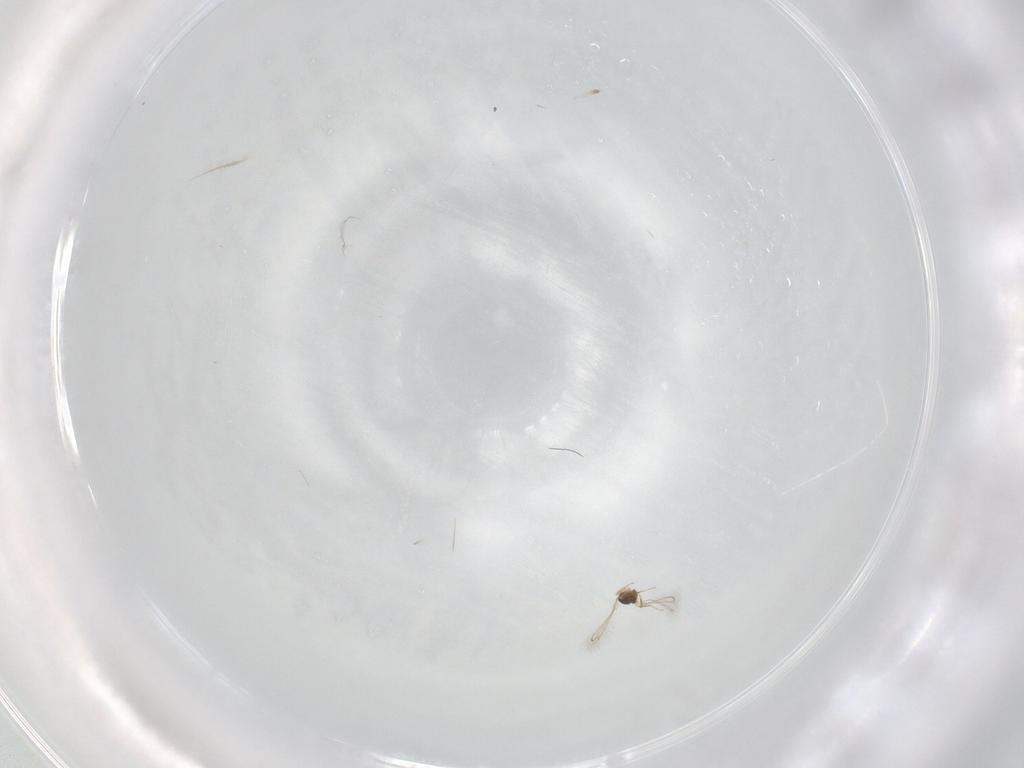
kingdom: Animalia
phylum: Arthropoda
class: Insecta
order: Hymenoptera
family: Mymaridae
